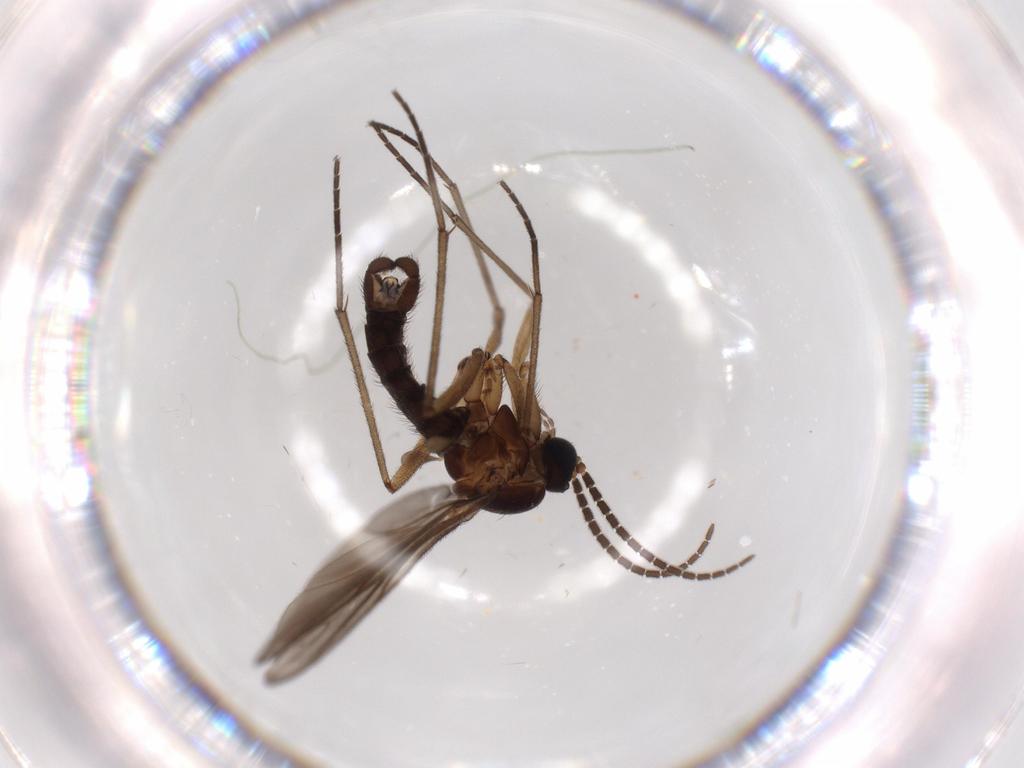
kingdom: Animalia
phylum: Arthropoda
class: Insecta
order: Diptera
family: Sciaridae
